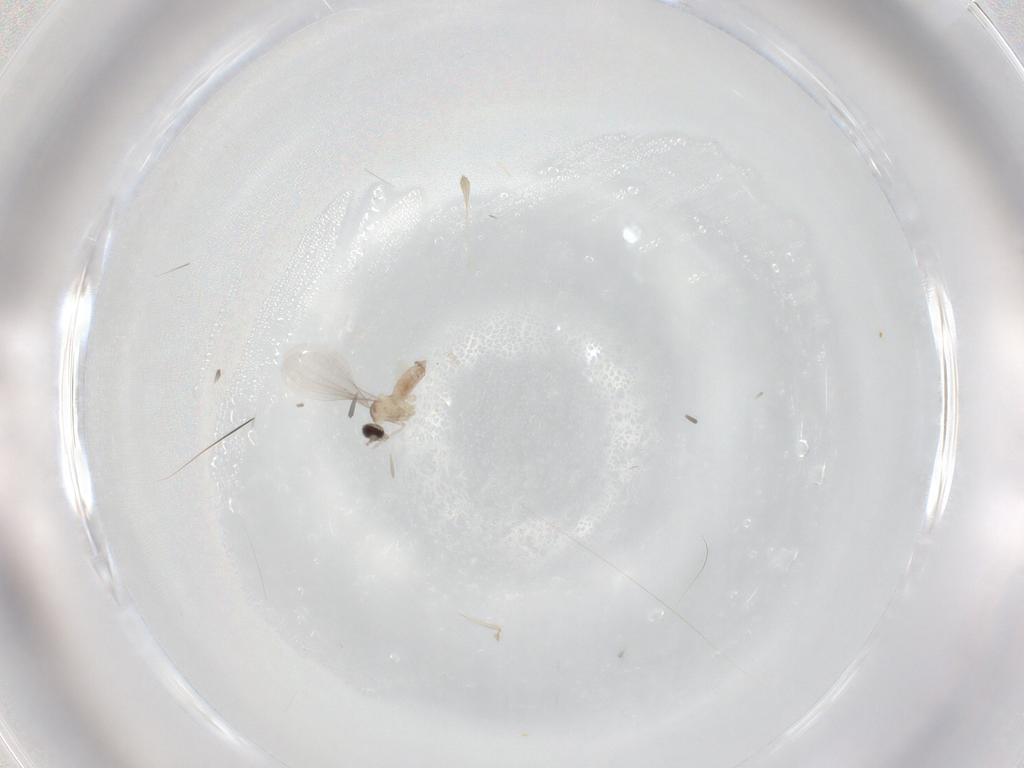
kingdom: Animalia
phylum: Arthropoda
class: Insecta
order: Diptera
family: Cecidomyiidae
